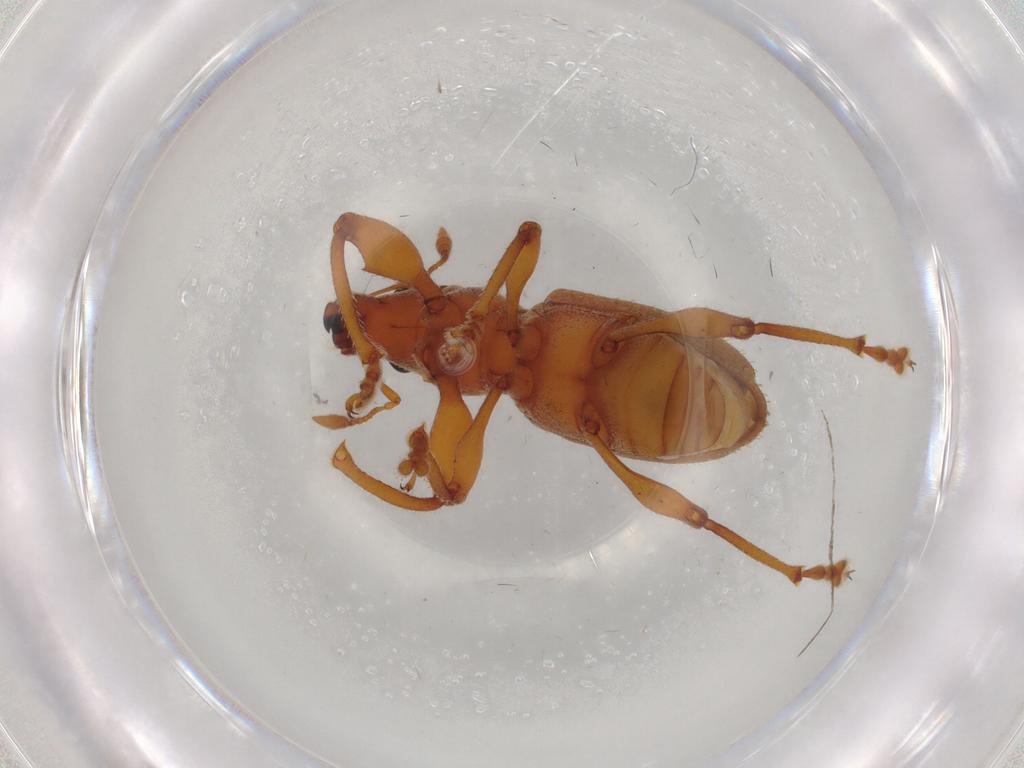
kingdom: Animalia
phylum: Arthropoda
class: Insecta
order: Coleoptera
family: Curculionidae
